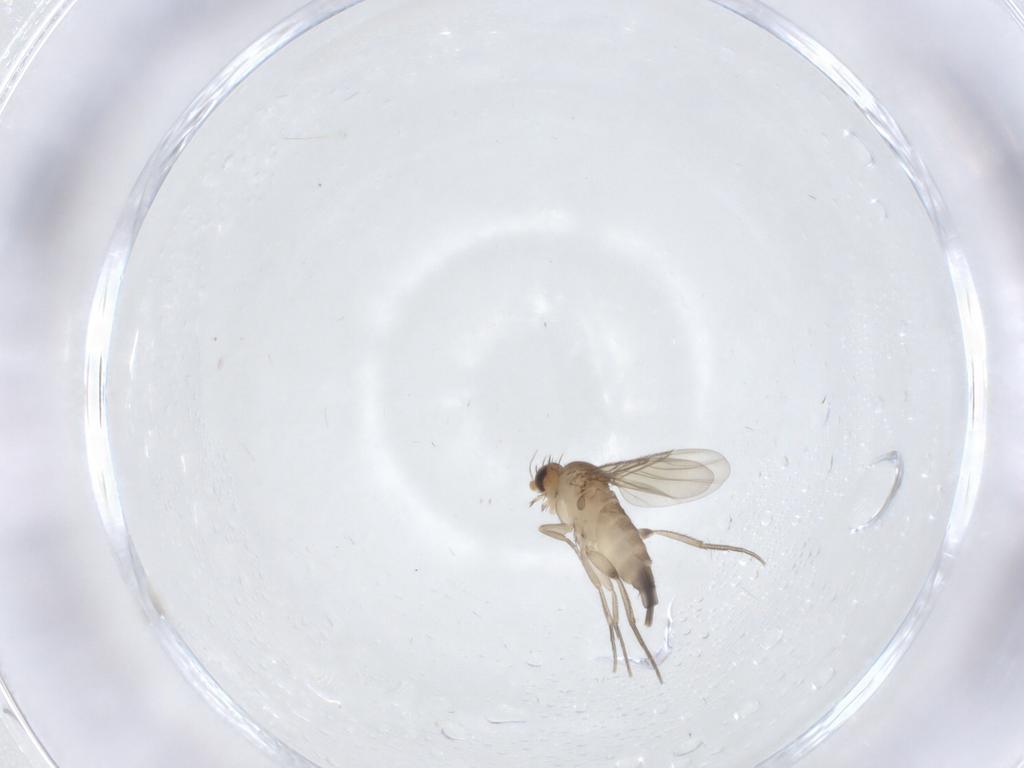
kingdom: Animalia
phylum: Arthropoda
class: Insecta
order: Diptera
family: Phoridae
